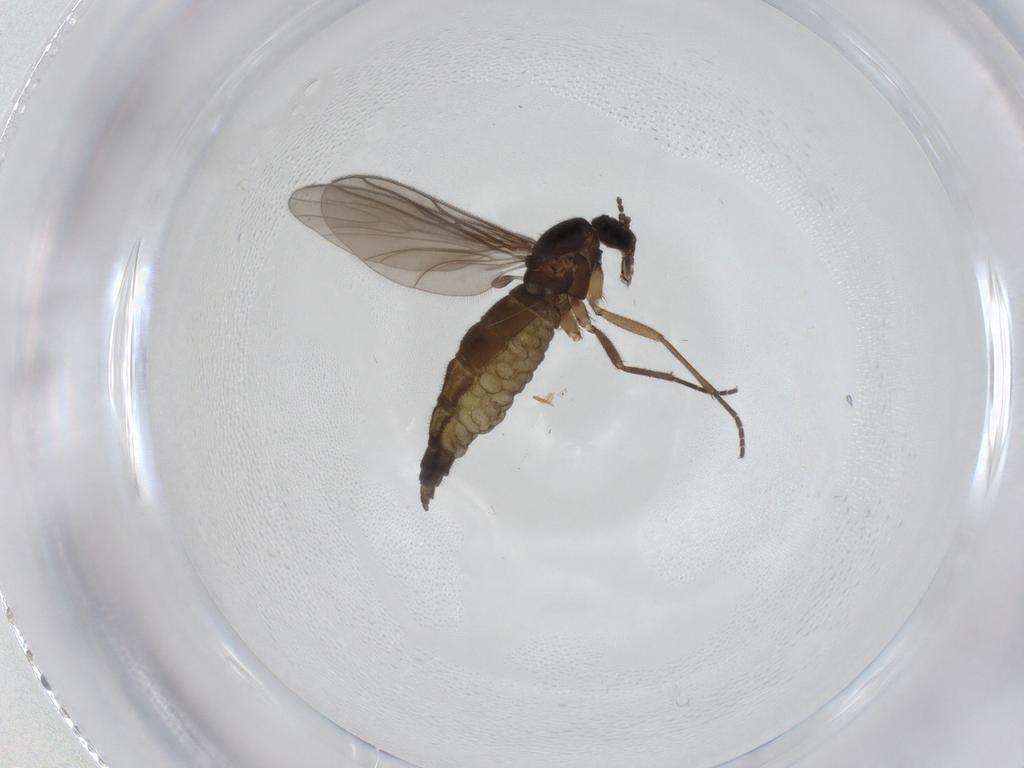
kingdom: Animalia
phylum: Arthropoda
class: Insecta
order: Diptera
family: Sciaridae
